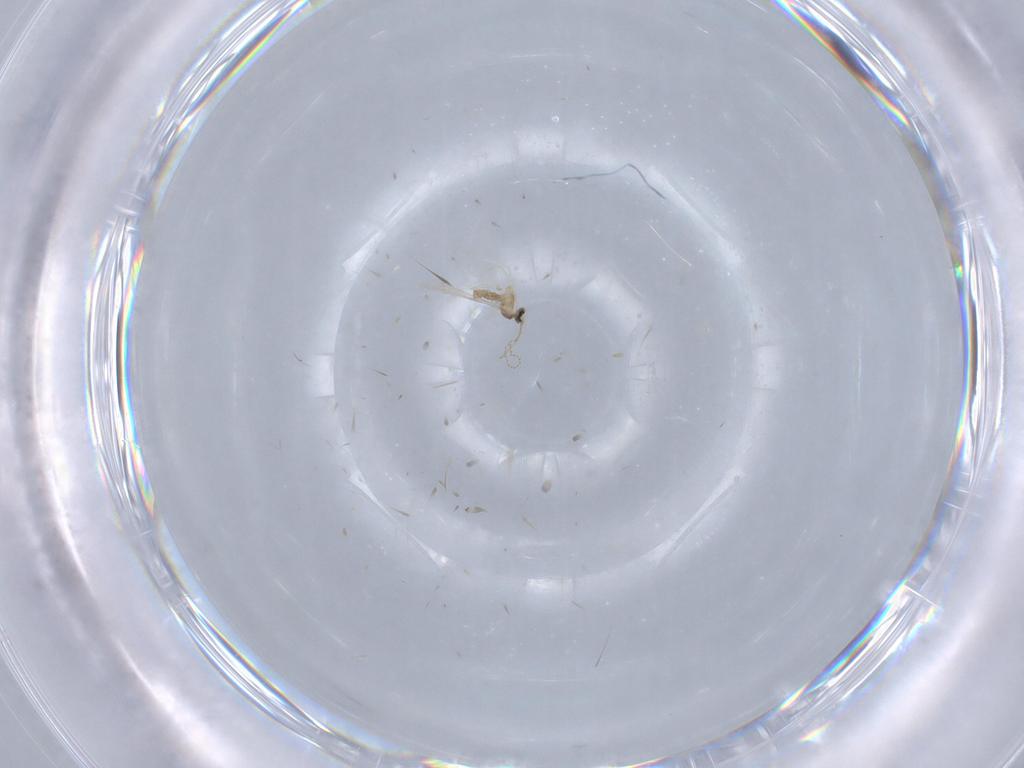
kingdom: Animalia
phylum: Arthropoda
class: Insecta
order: Diptera
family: Cecidomyiidae
